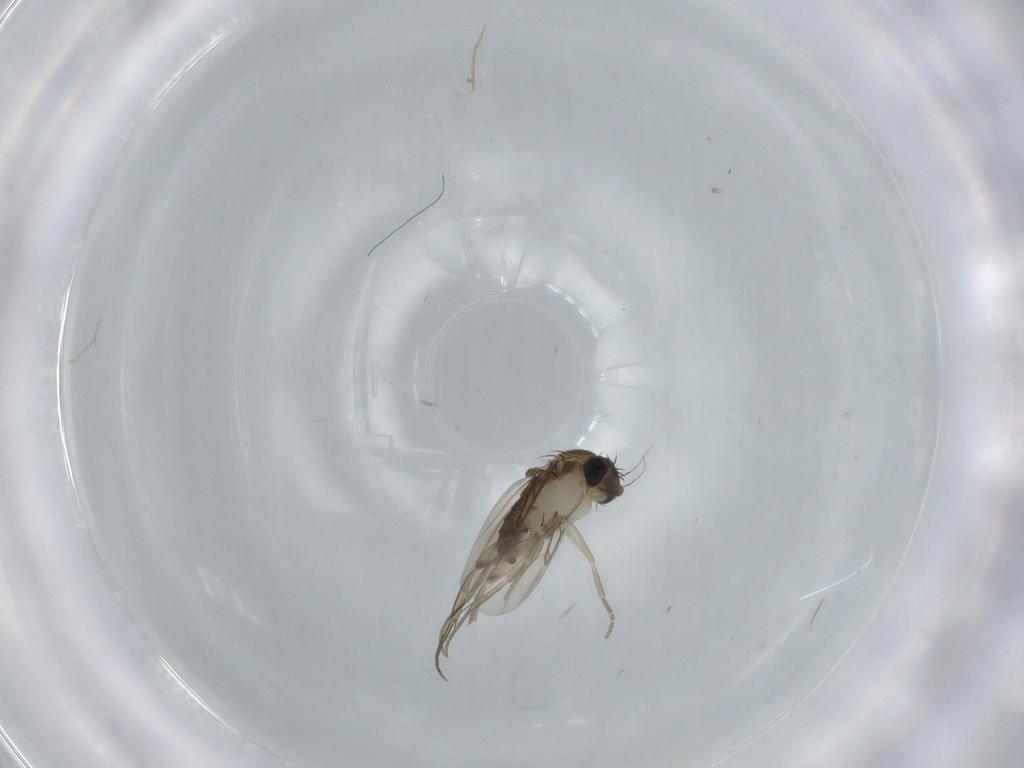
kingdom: Animalia
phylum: Arthropoda
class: Insecta
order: Diptera
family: Phoridae
